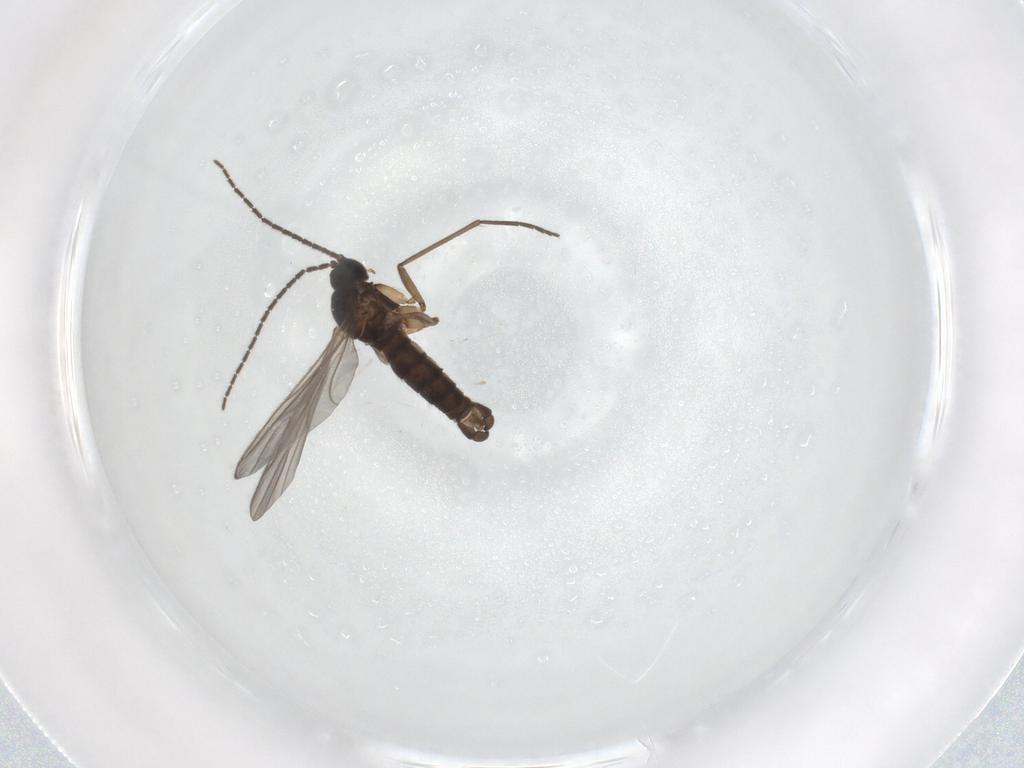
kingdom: Animalia
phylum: Arthropoda
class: Insecta
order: Diptera
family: Sciaridae
